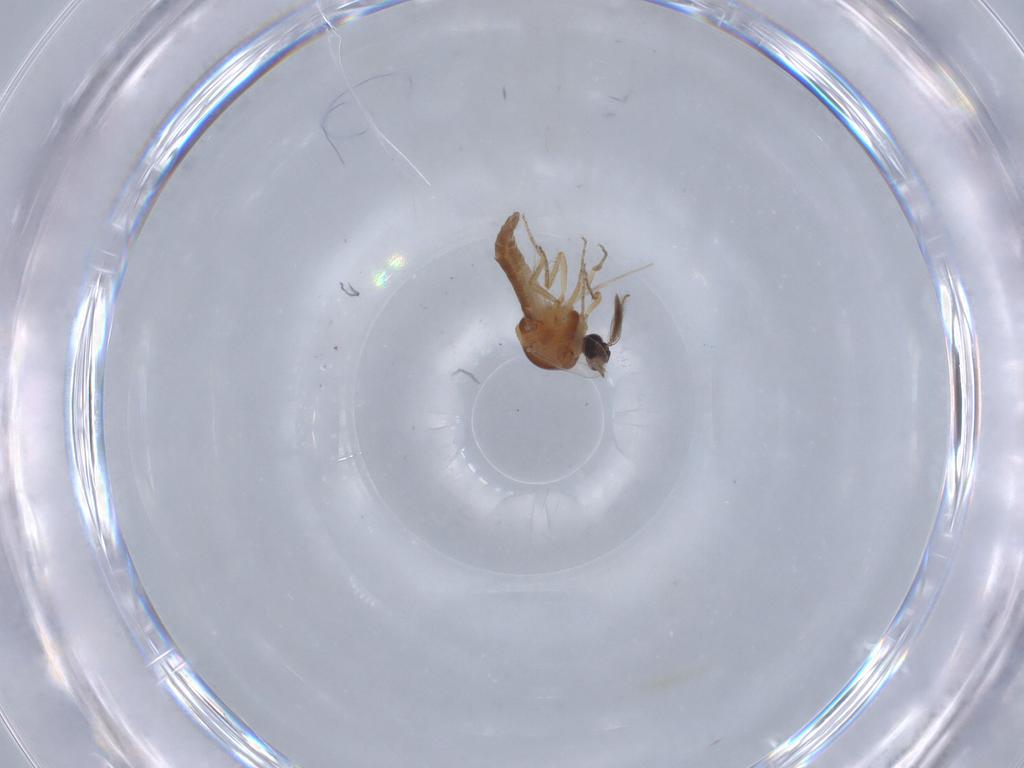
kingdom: Animalia
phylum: Arthropoda
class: Insecta
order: Diptera
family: Ceratopogonidae
